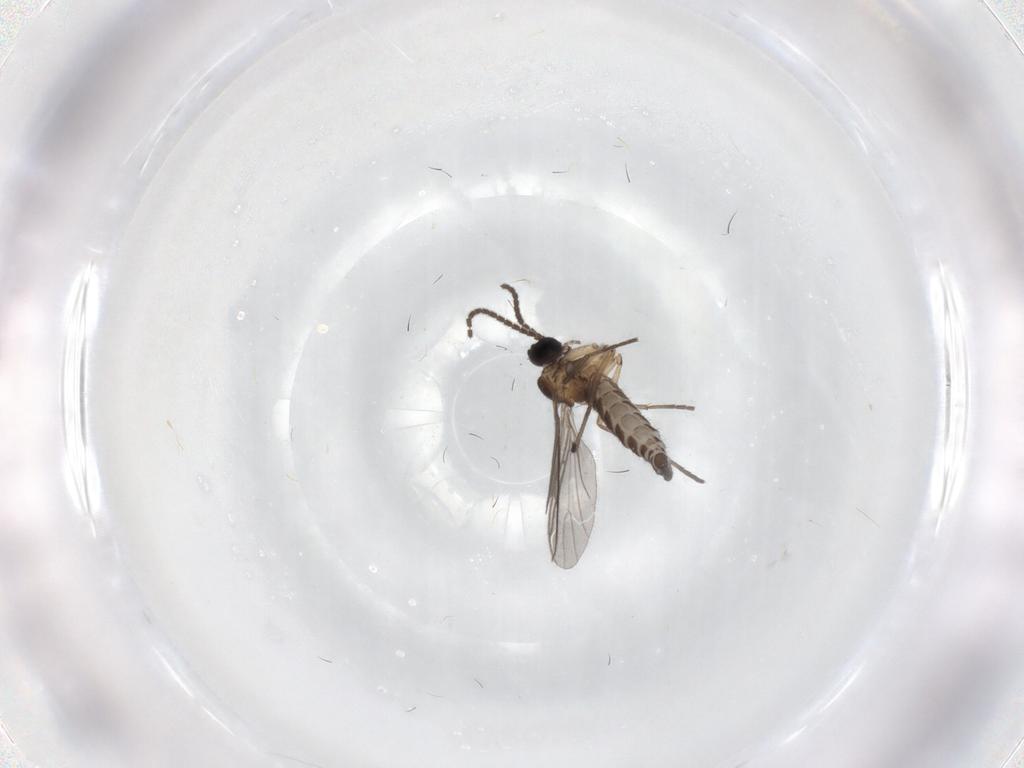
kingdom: Animalia
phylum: Arthropoda
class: Insecta
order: Diptera
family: Sciaridae
